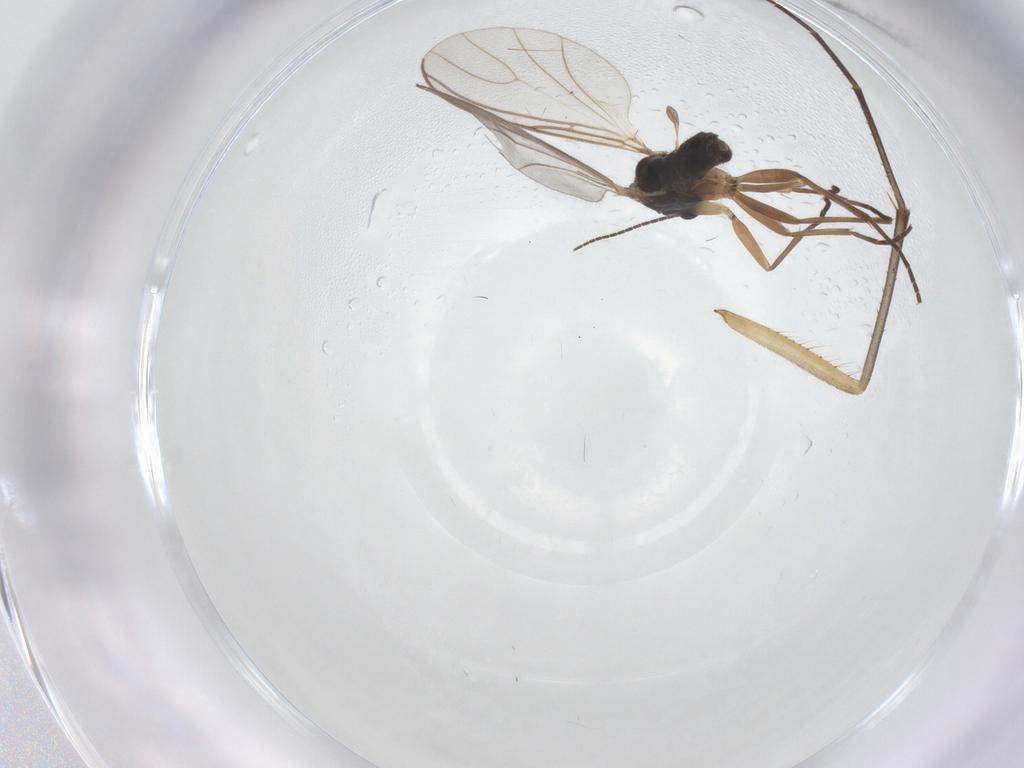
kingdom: Animalia
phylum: Arthropoda
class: Insecta
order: Diptera
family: Sciaridae
